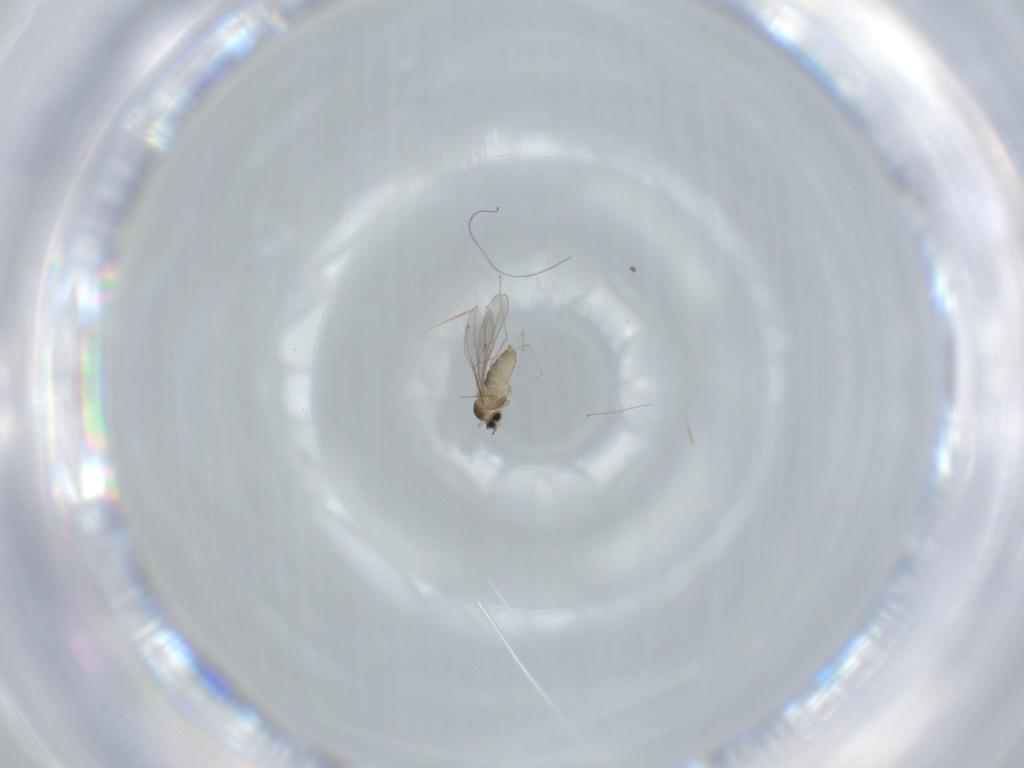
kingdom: Animalia
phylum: Arthropoda
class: Insecta
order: Diptera
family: Cecidomyiidae
